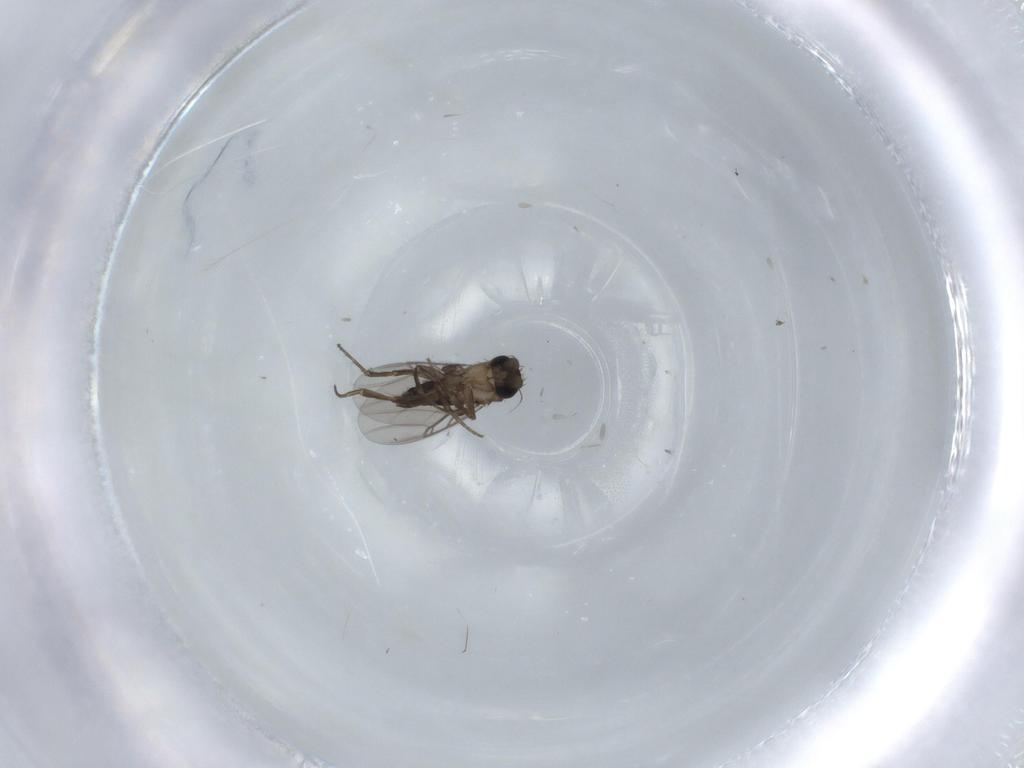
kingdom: Animalia
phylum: Arthropoda
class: Insecta
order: Diptera
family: Phoridae
